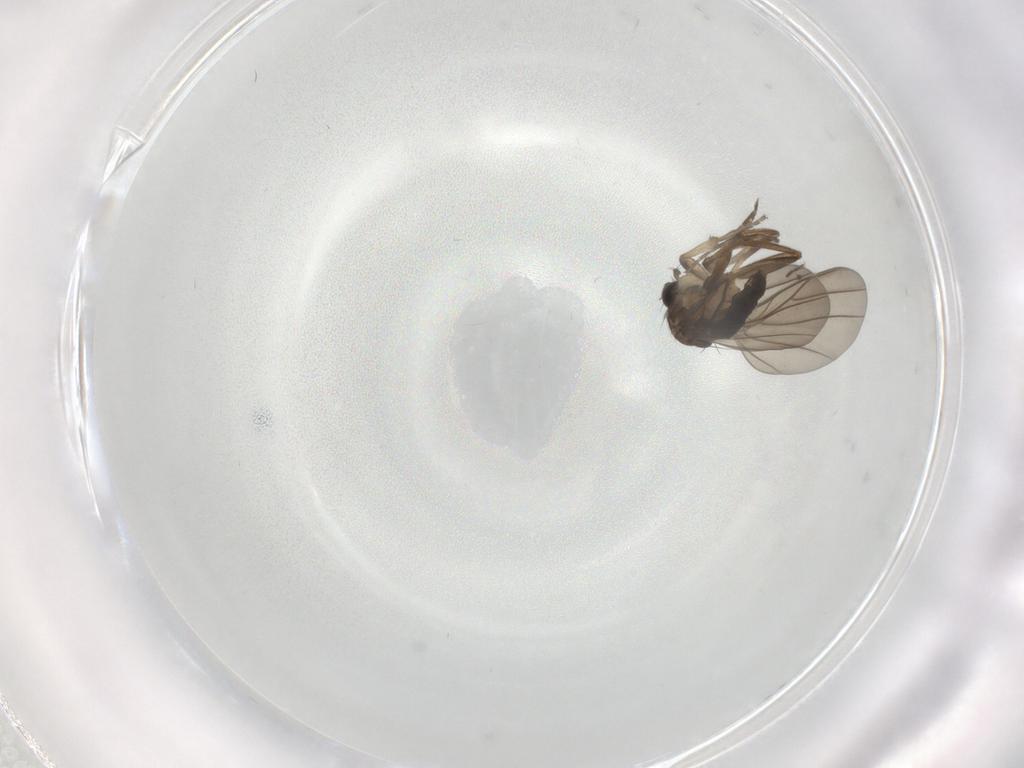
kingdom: Animalia
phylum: Arthropoda
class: Insecta
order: Diptera
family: Phoridae
